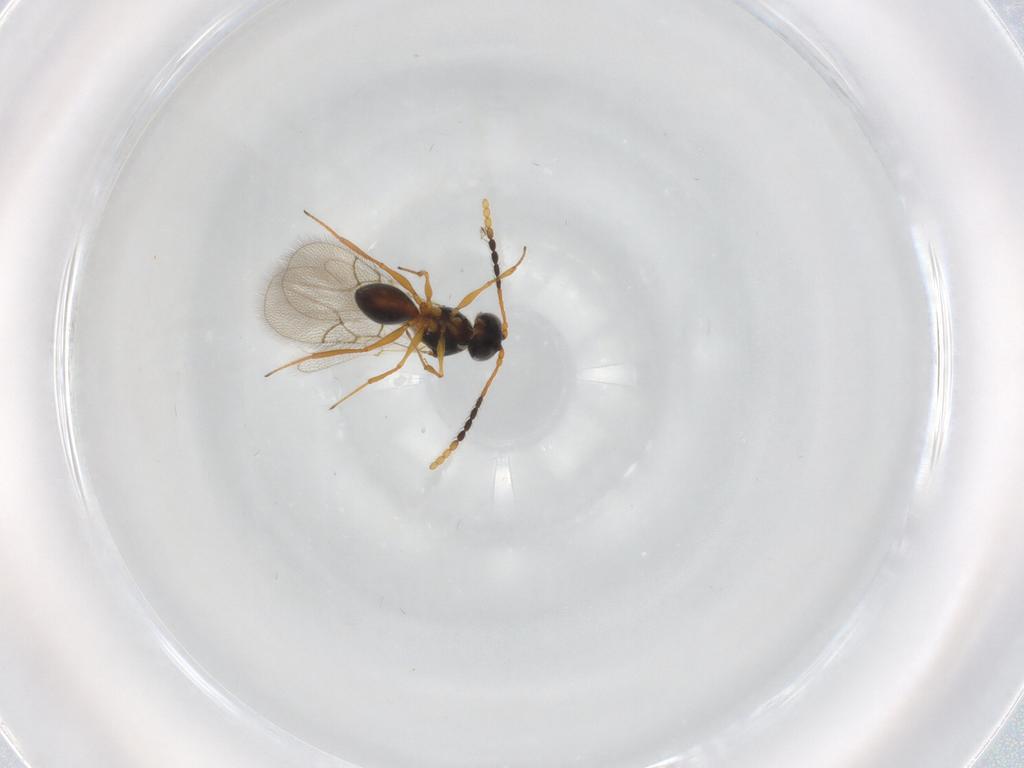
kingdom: Animalia
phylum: Arthropoda
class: Insecta
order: Hymenoptera
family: Figitidae
